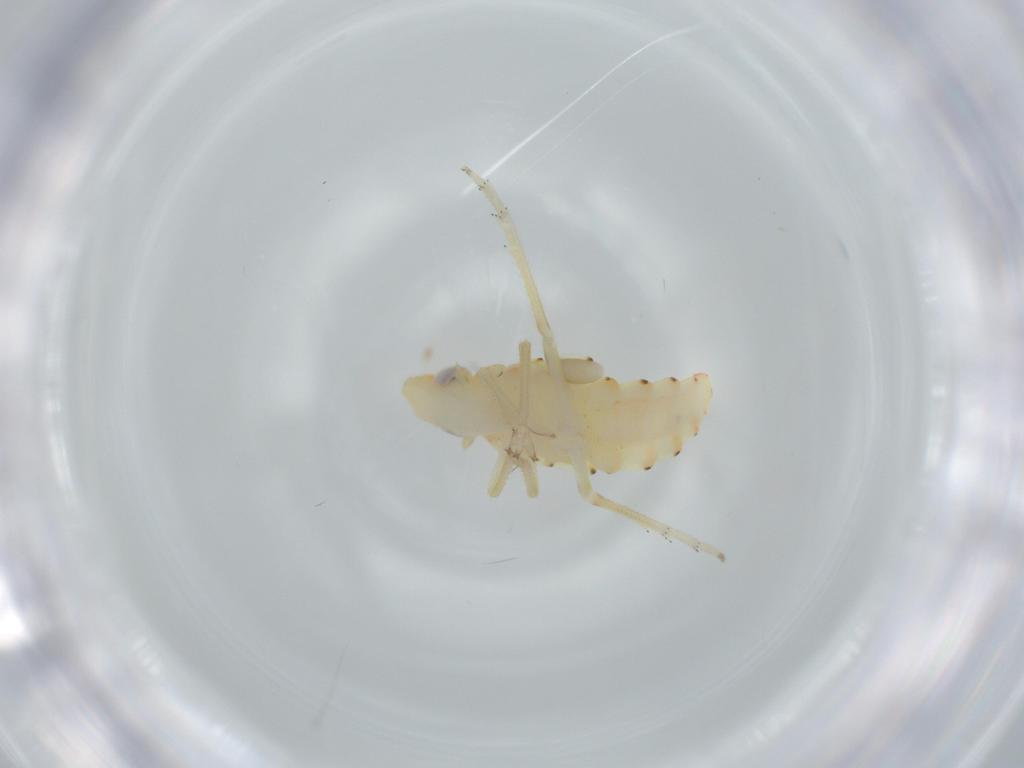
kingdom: Animalia
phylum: Arthropoda
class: Insecta
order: Hemiptera
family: Tropiduchidae
